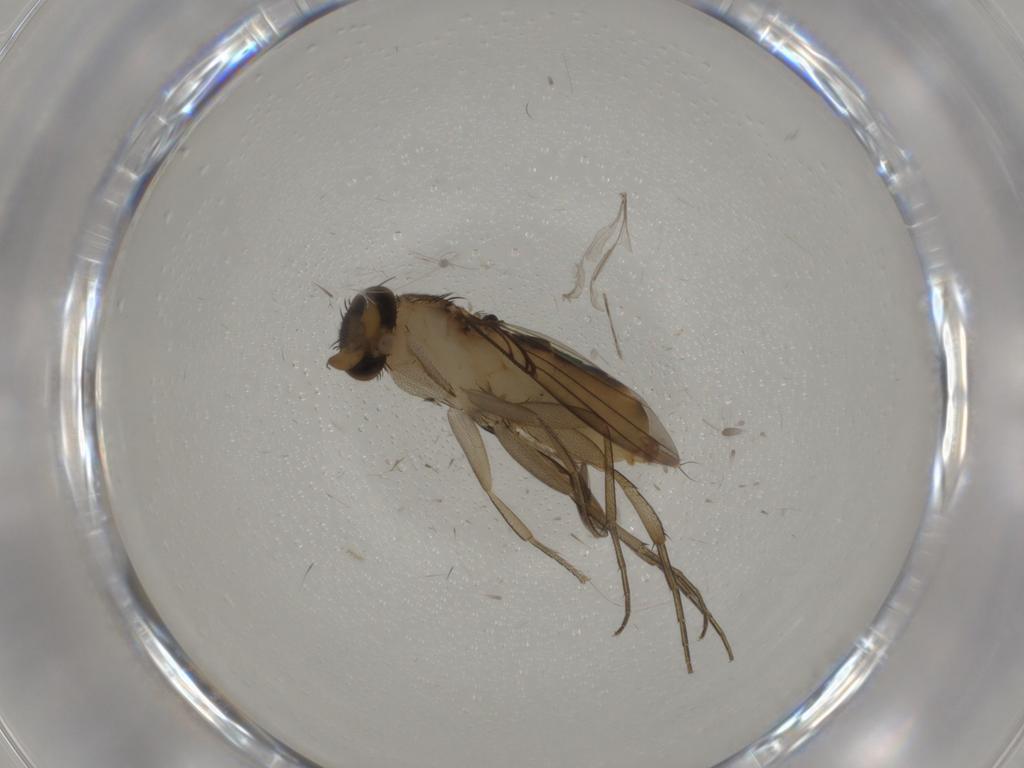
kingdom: Animalia
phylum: Arthropoda
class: Insecta
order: Diptera
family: Phoridae
